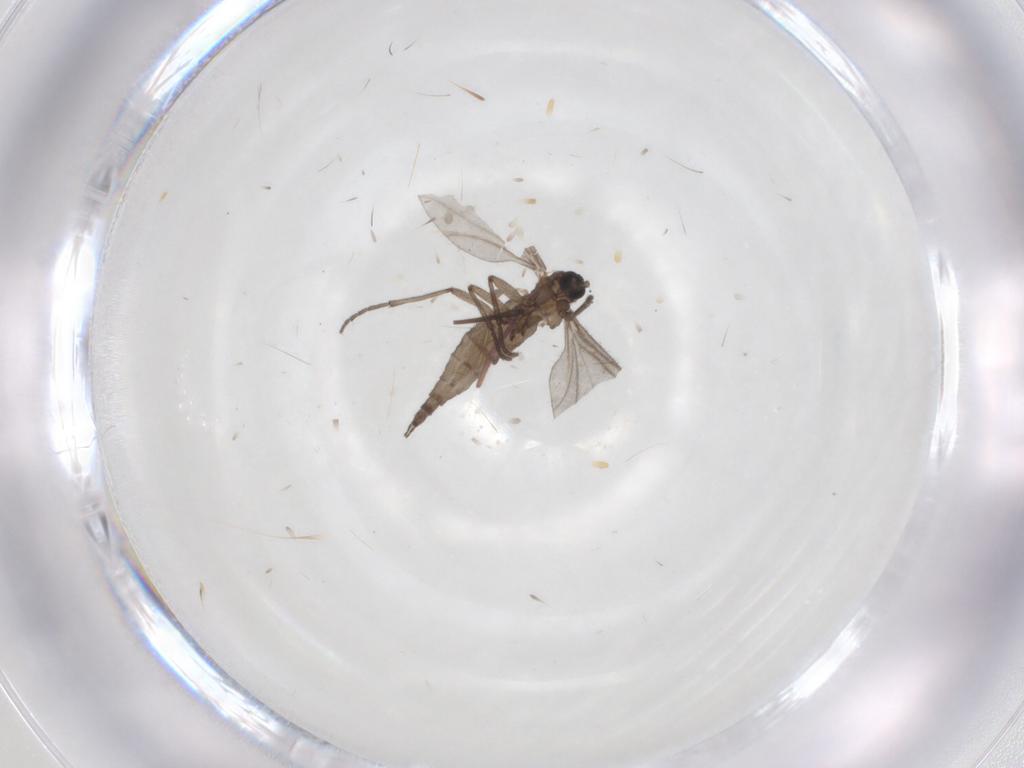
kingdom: Animalia
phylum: Arthropoda
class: Insecta
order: Diptera
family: Sciaridae
